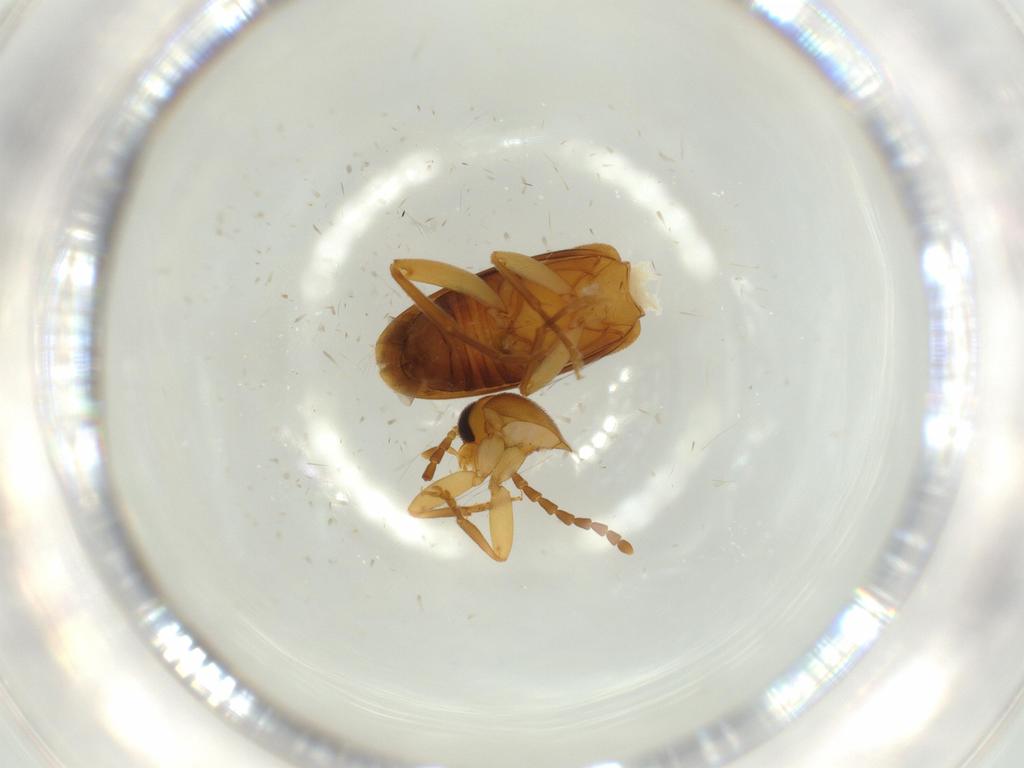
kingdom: Animalia
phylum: Arthropoda
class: Insecta
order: Coleoptera
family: Scraptiidae
